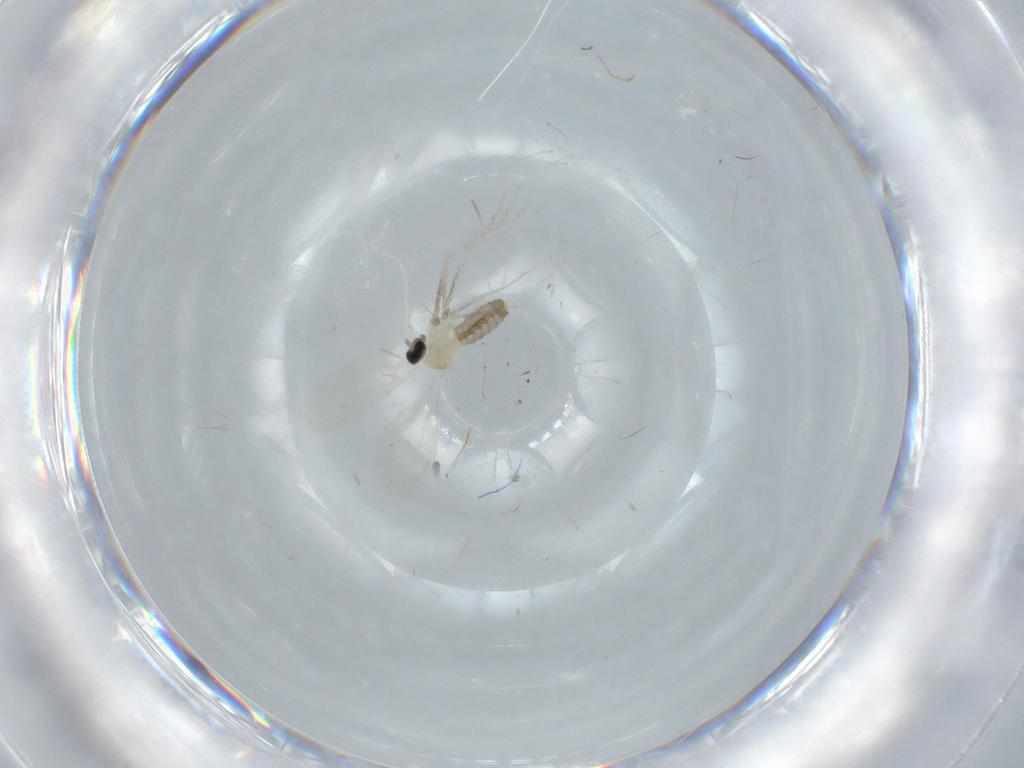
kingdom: Animalia
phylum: Arthropoda
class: Insecta
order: Diptera
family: Cecidomyiidae
